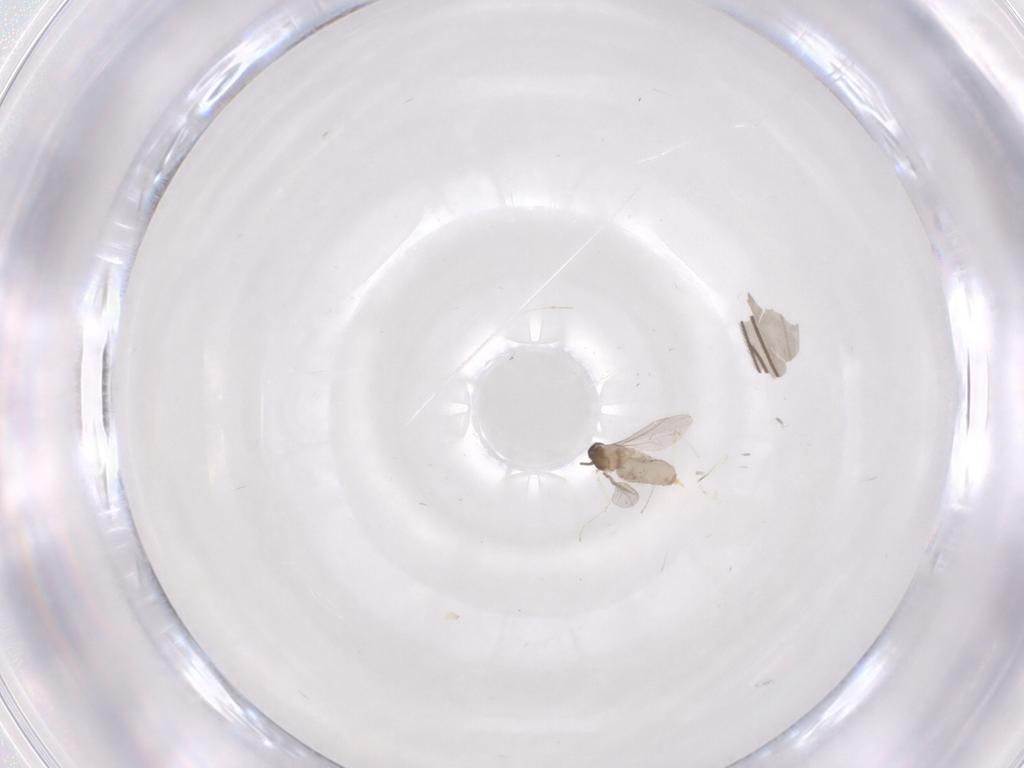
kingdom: Animalia
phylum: Arthropoda
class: Insecta
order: Diptera
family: Cecidomyiidae
